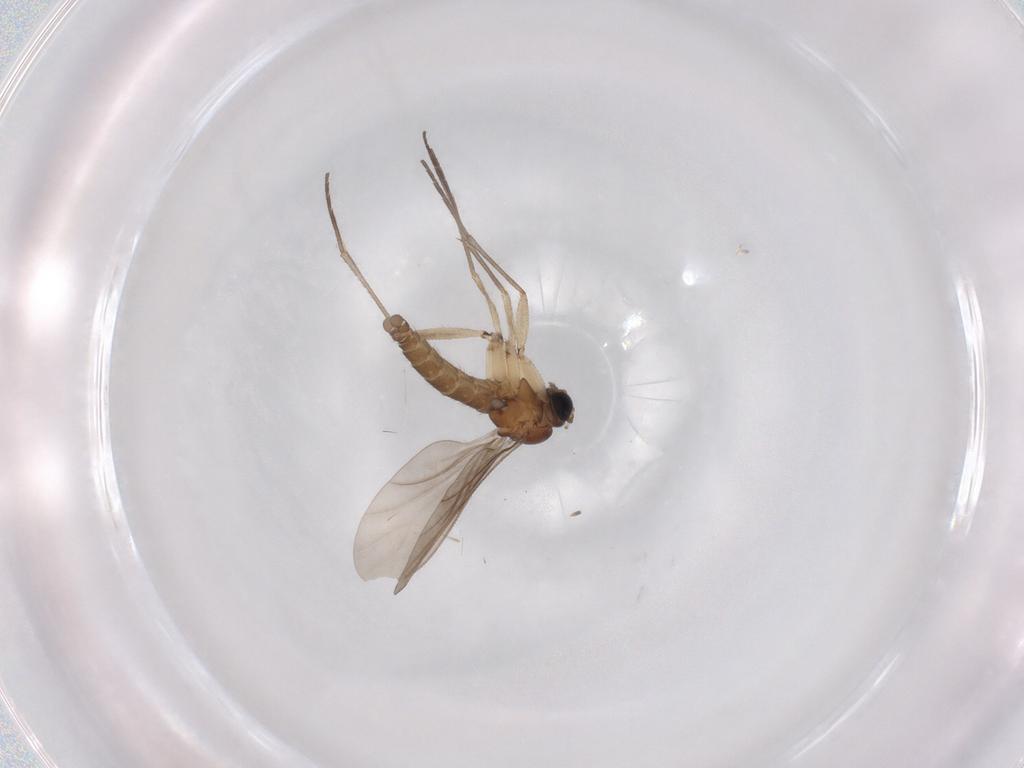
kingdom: Animalia
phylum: Arthropoda
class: Insecta
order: Diptera
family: Sciaridae
